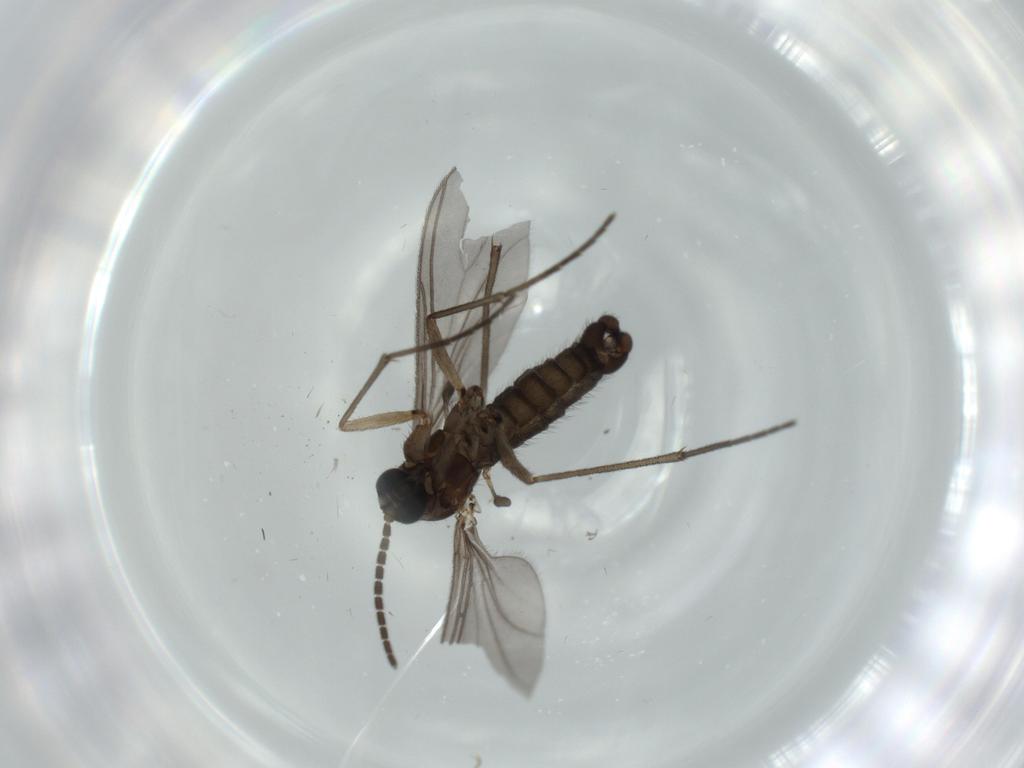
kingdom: Animalia
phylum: Arthropoda
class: Insecta
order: Diptera
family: Sciaridae
